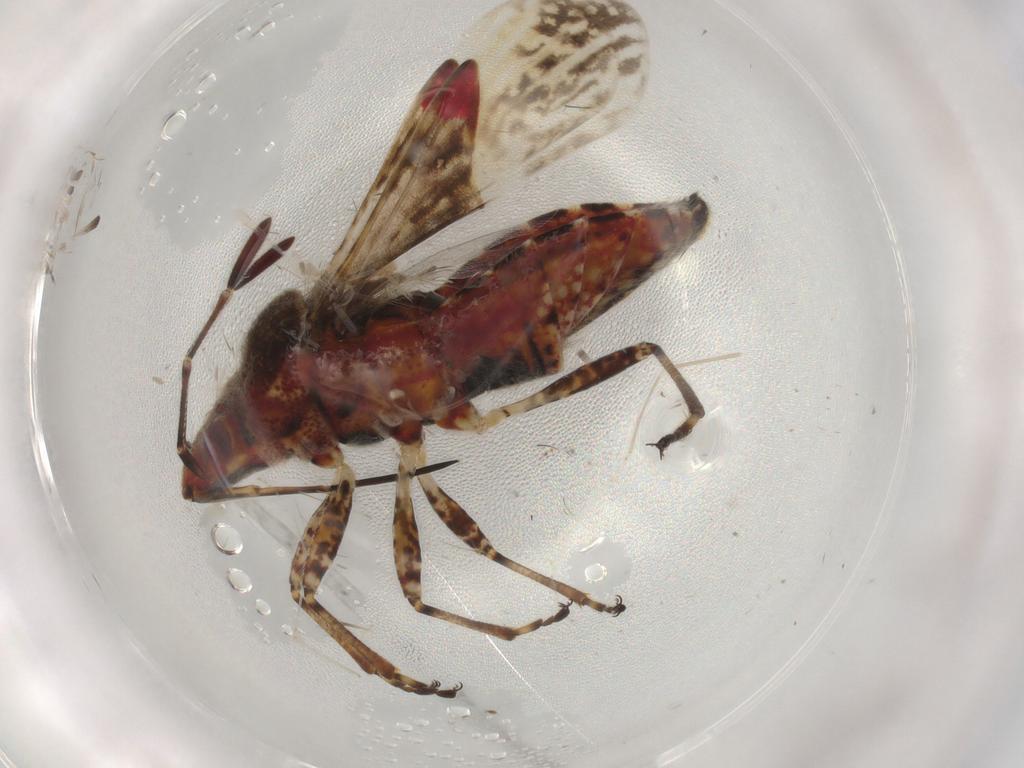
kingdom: Animalia
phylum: Arthropoda
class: Insecta
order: Hemiptera
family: Lygaeidae
